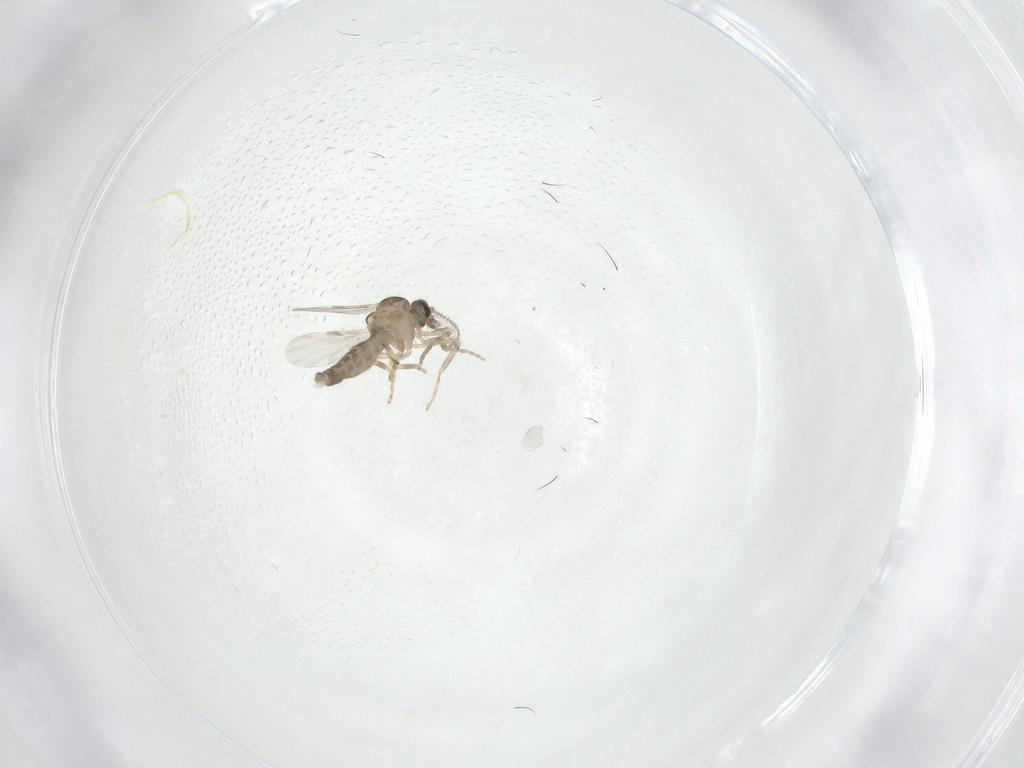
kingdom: Animalia
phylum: Arthropoda
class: Insecta
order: Diptera
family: Ceratopogonidae
